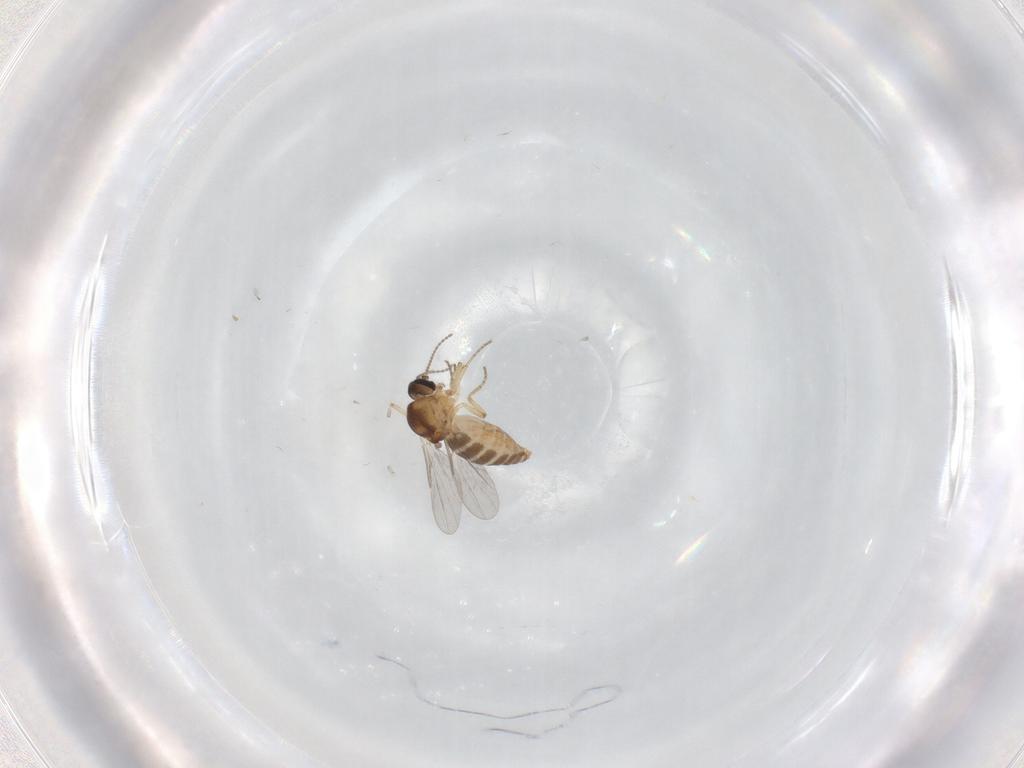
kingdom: Animalia
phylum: Arthropoda
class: Insecta
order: Diptera
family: Ceratopogonidae
